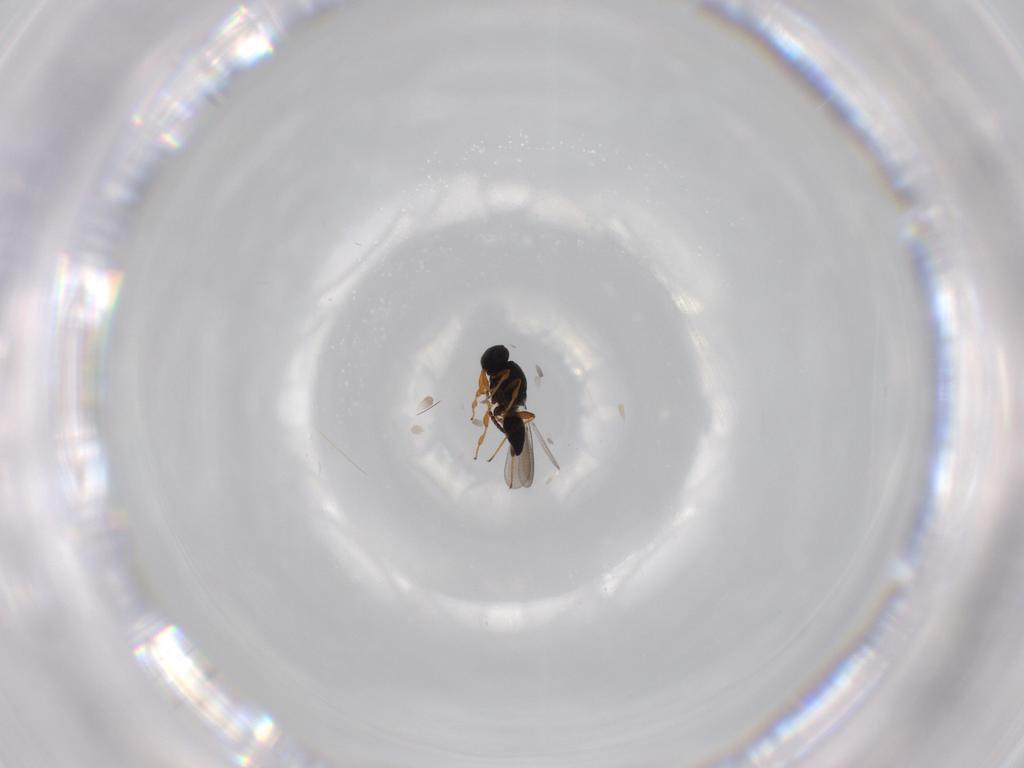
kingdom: Animalia
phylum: Arthropoda
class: Insecta
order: Hymenoptera
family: Platygastridae
